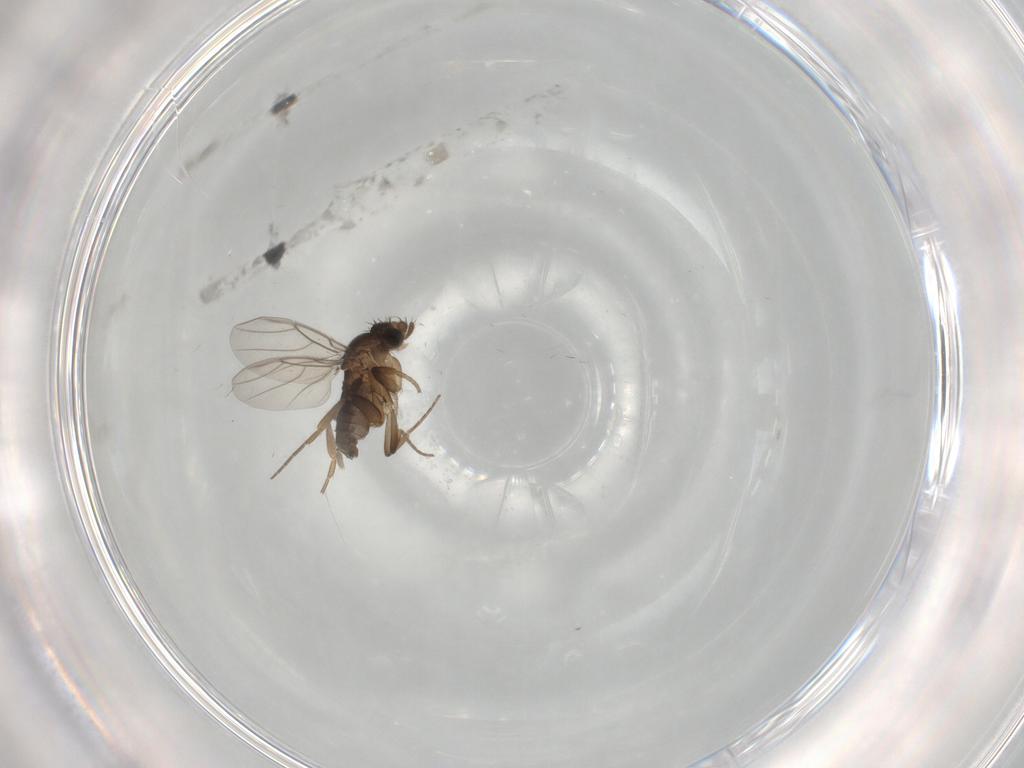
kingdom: Animalia
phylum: Arthropoda
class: Insecta
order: Diptera
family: Phoridae
